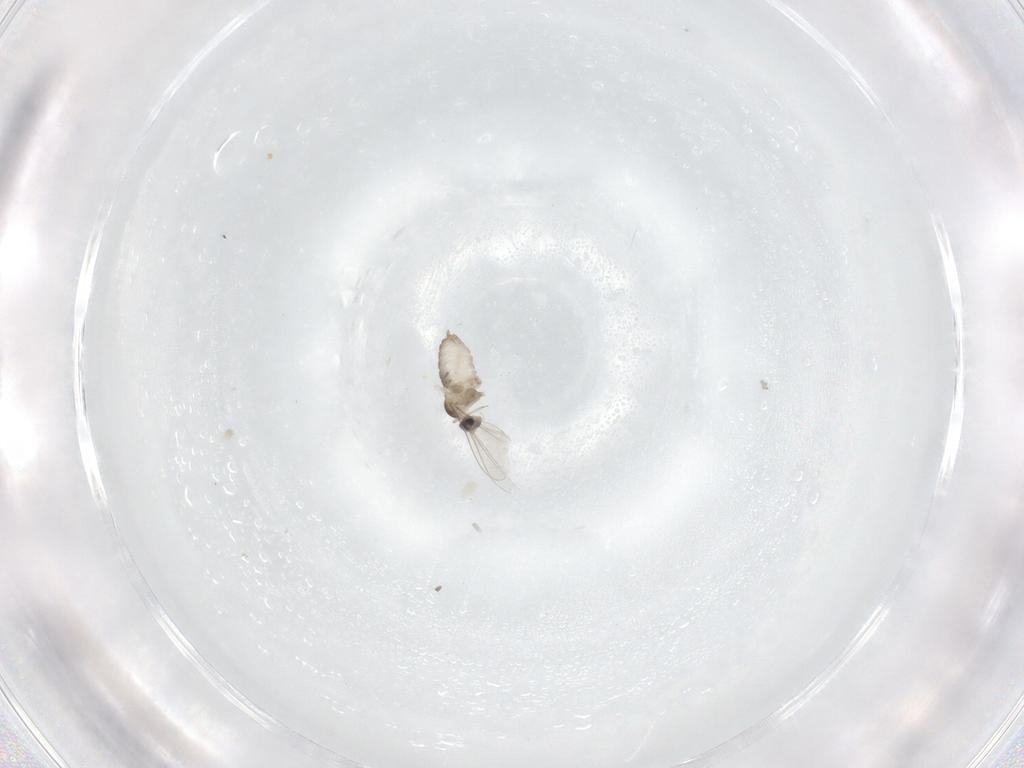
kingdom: Animalia
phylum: Arthropoda
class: Insecta
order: Diptera
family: Cecidomyiidae
